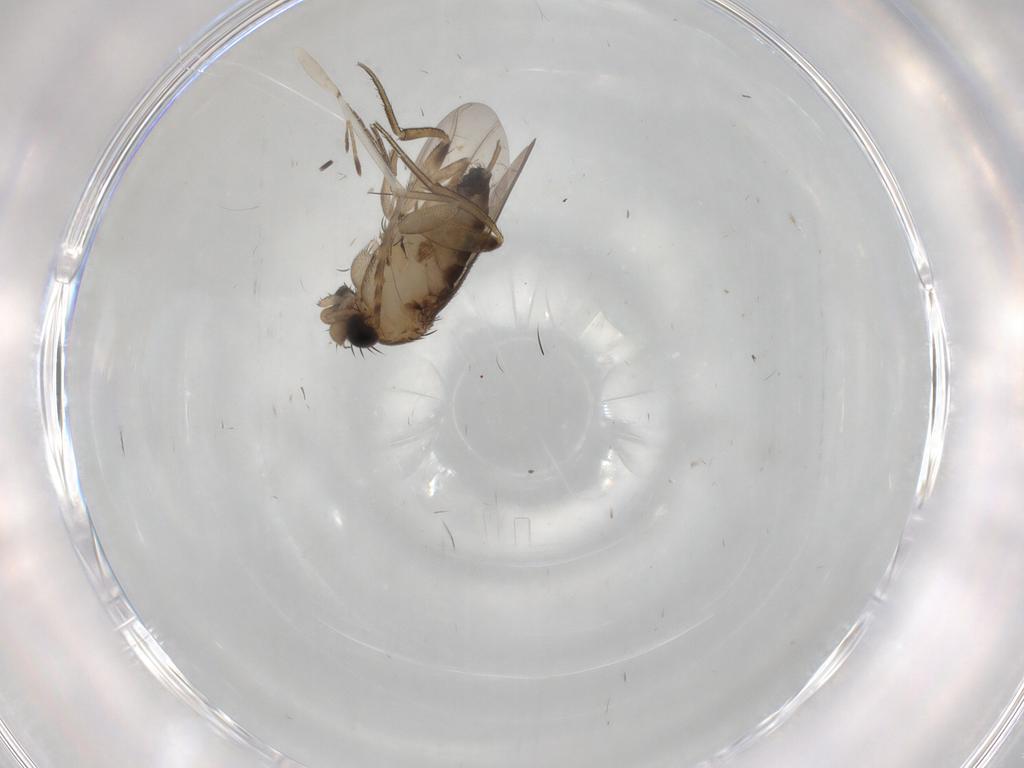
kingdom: Animalia
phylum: Arthropoda
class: Insecta
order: Diptera
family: Phoridae
